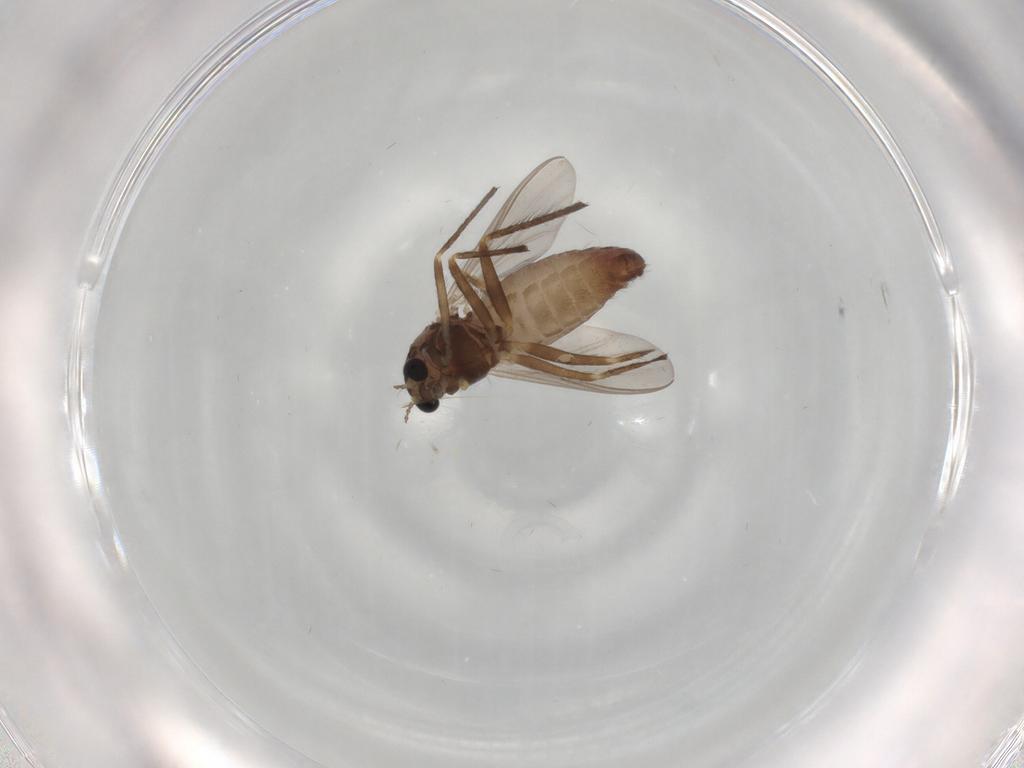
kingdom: Animalia
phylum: Arthropoda
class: Insecta
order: Diptera
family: Chironomidae
